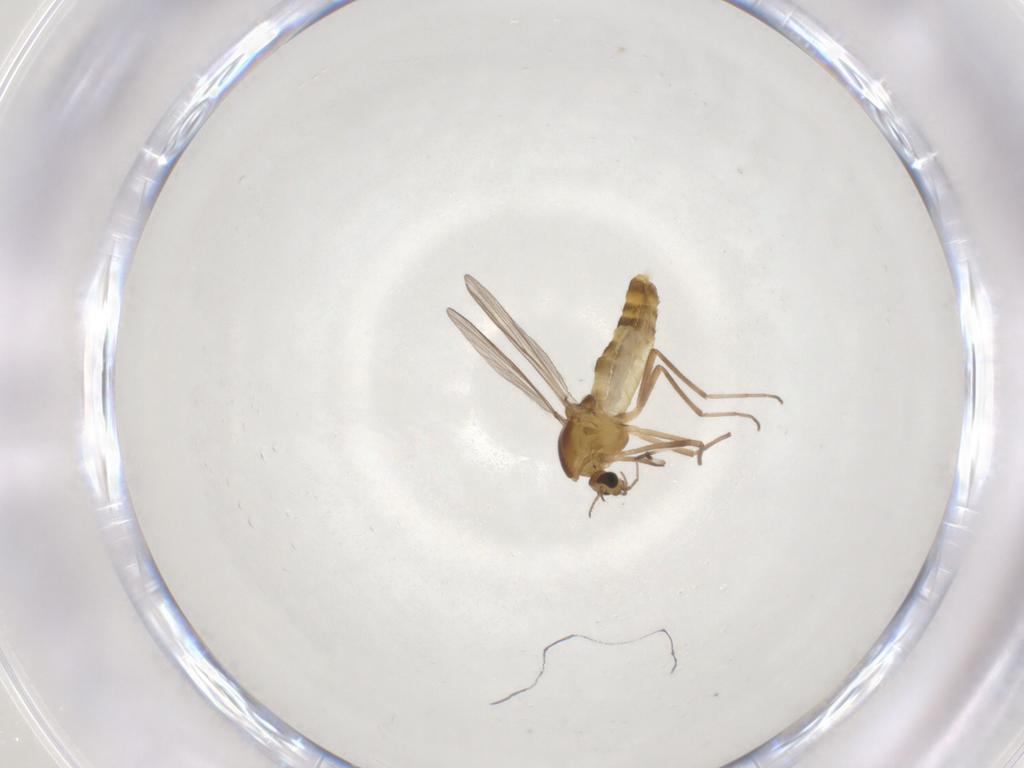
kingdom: Animalia
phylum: Arthropoda
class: Insecta
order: Diptera
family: Chironomidae
